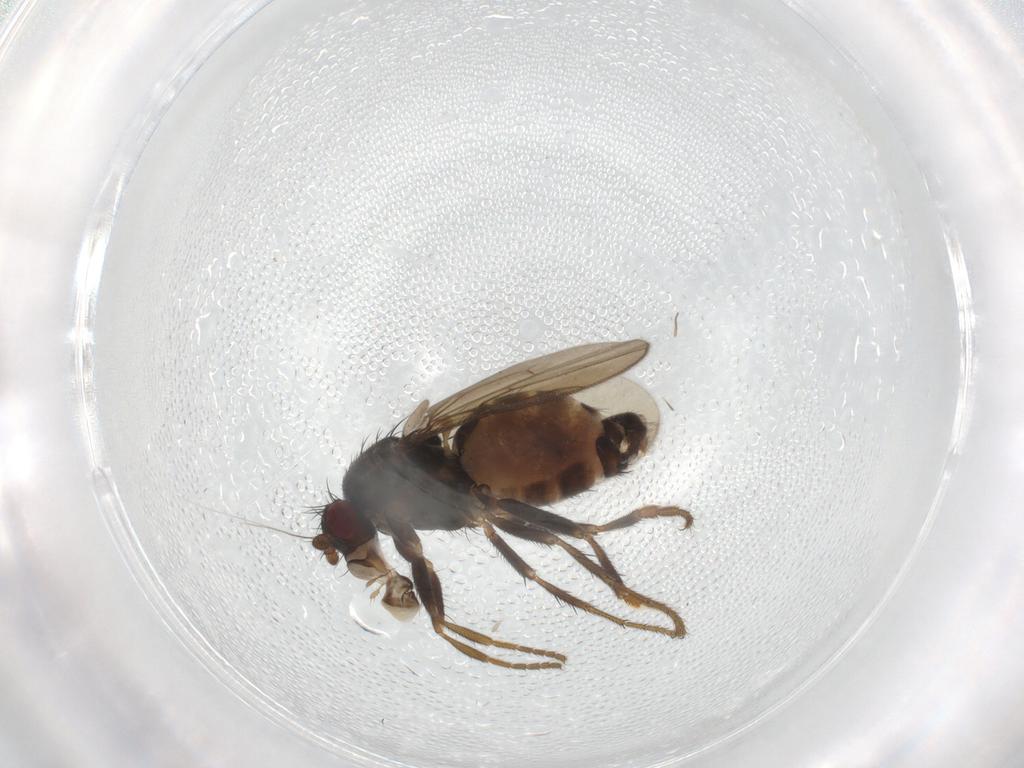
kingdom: Animalia
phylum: Arthropoda
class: Insecta
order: Diptera
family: Sphaeroceridae
